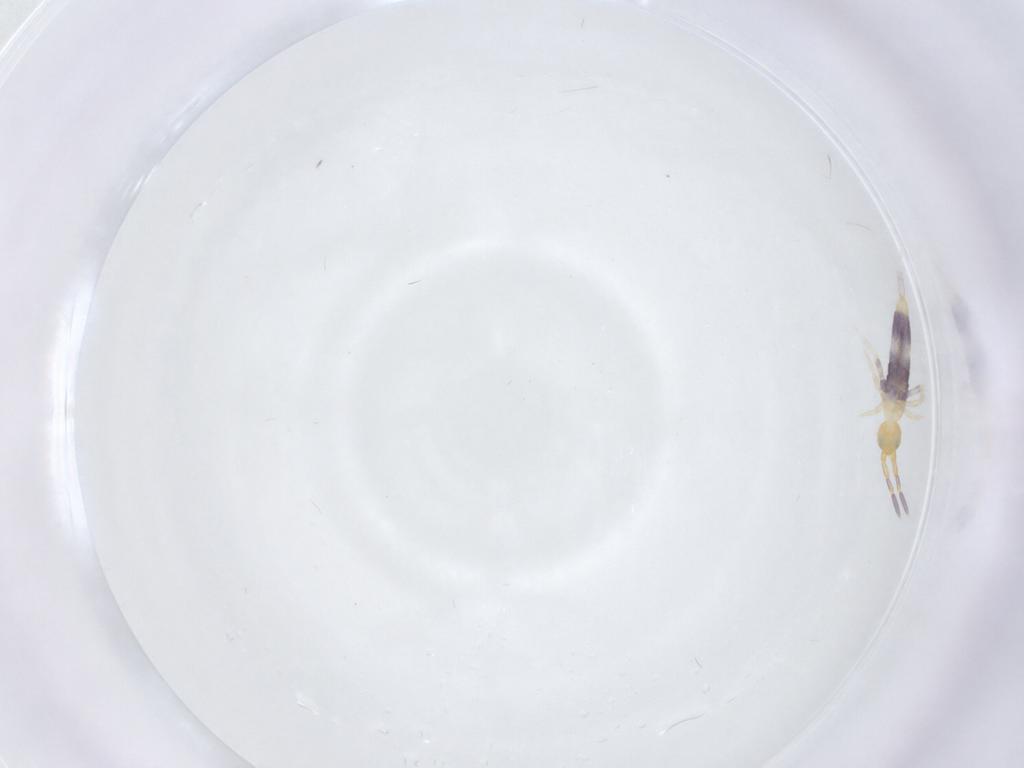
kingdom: Animalia
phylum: Arthropoda
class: Collembola
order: Entomobryomorpha
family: Entomobryidae
